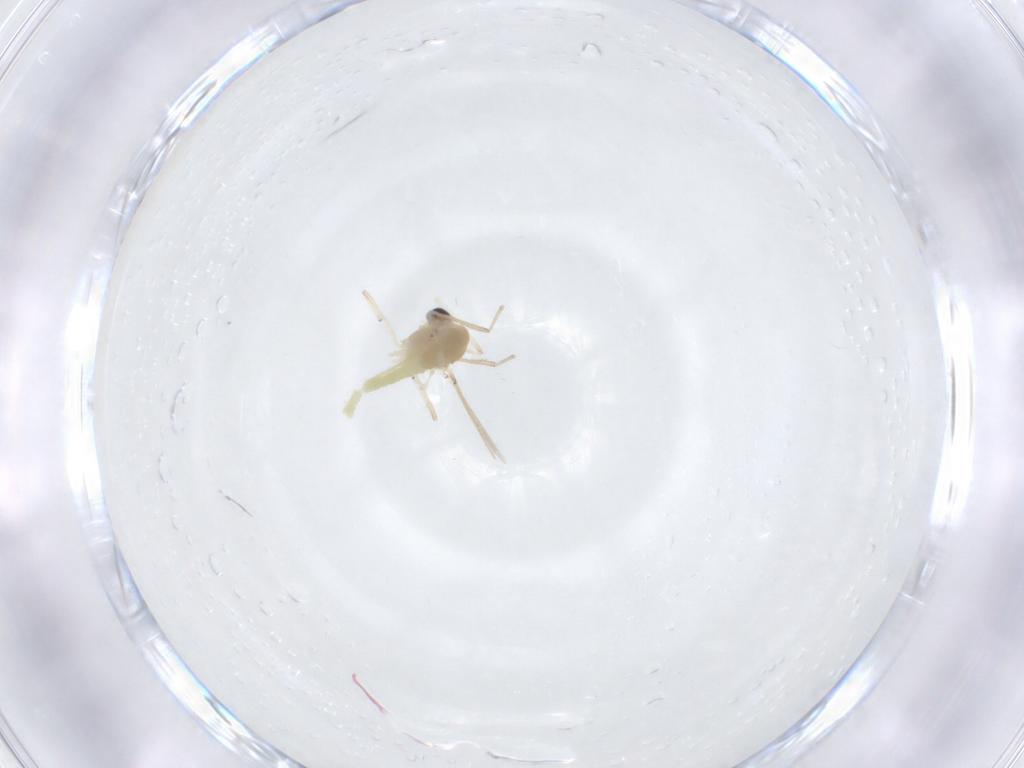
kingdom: Animalia
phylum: Arthropoda
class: Insecta
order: Diptera
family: Chironomidae
